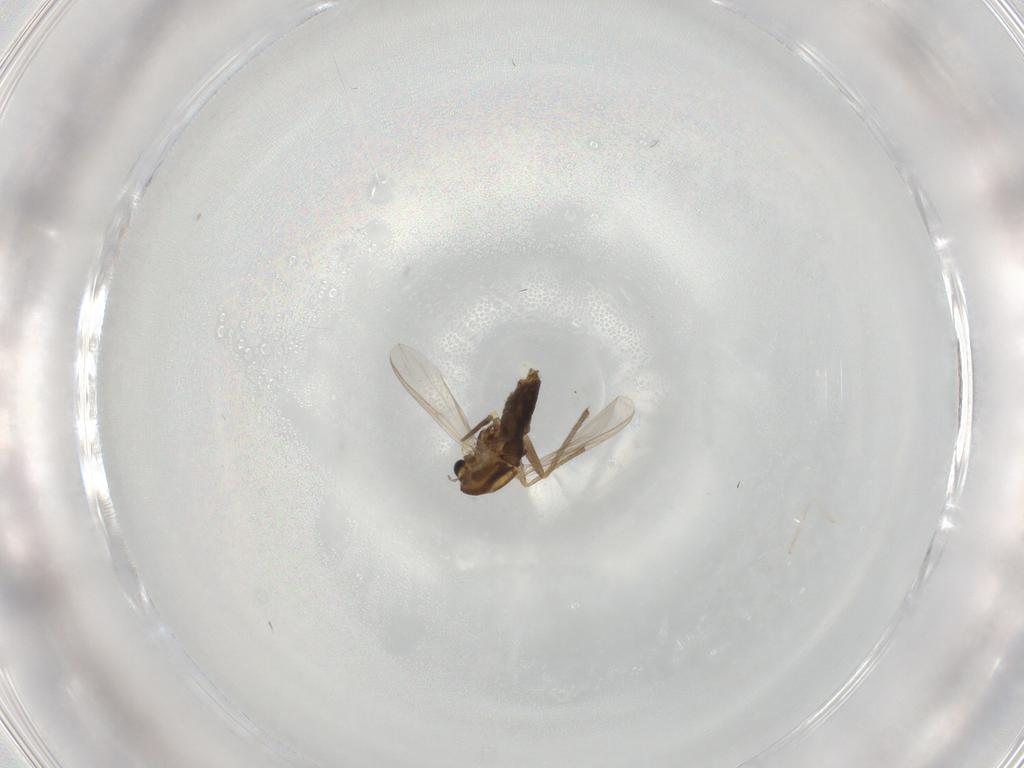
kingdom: Animalia
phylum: Arthropoda
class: Insecta
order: Diptera
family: Chironomidae
